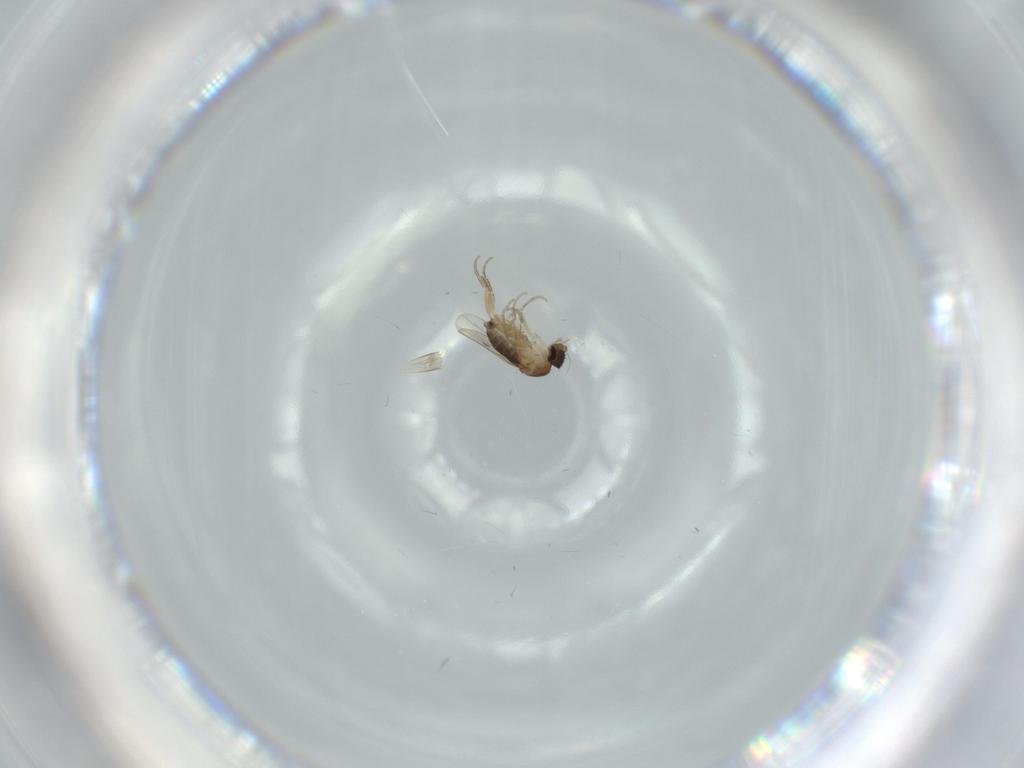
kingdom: Animalia
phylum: Arthropoda
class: Insecta
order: Diptera
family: Phoridae
